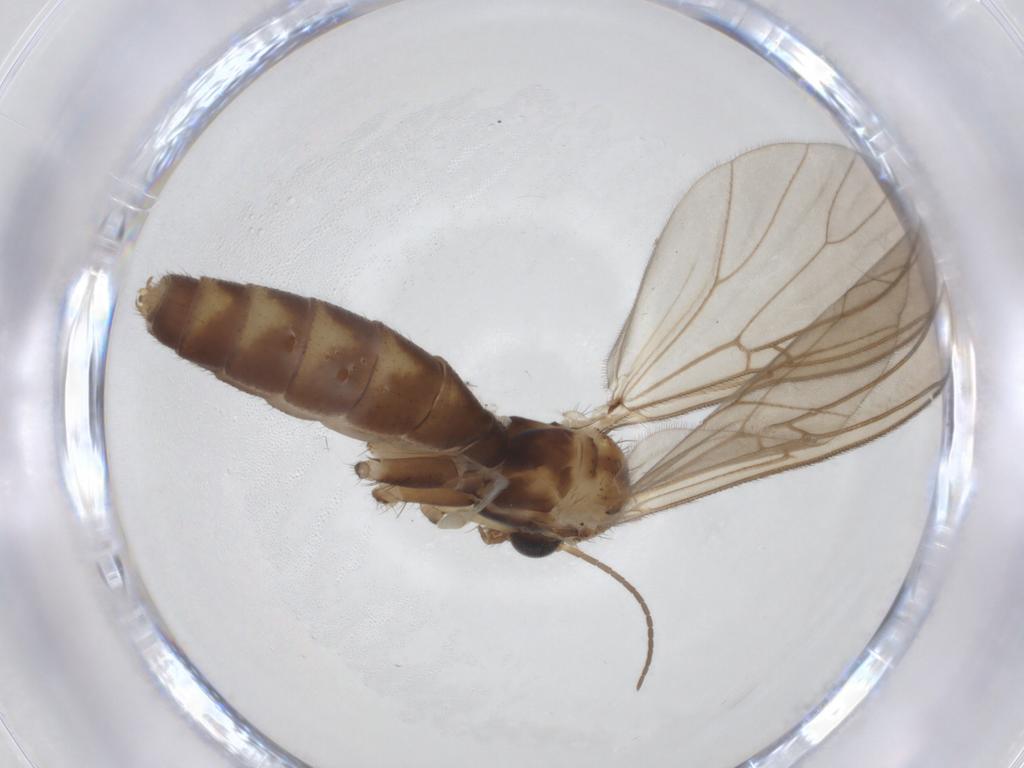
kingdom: Animalia
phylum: Arthropoda
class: Insecta
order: Diptera
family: Mycetophilidae
